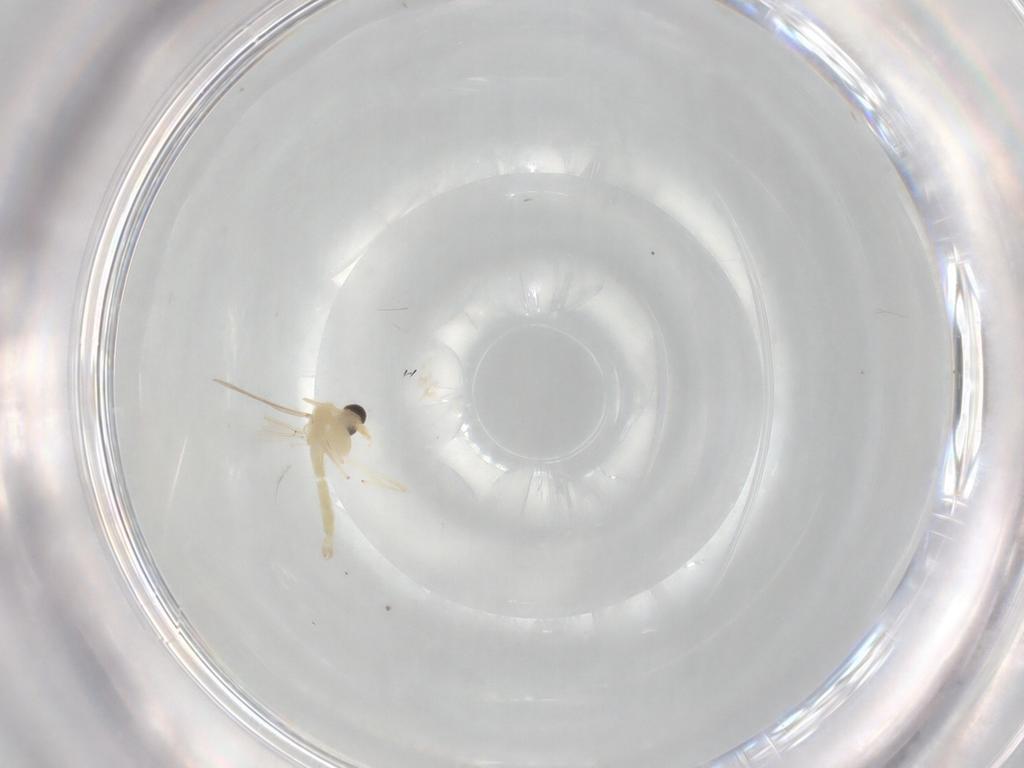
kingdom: Animalia
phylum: Arthropoda
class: Insecta
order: Diptera
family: Chironomidae
